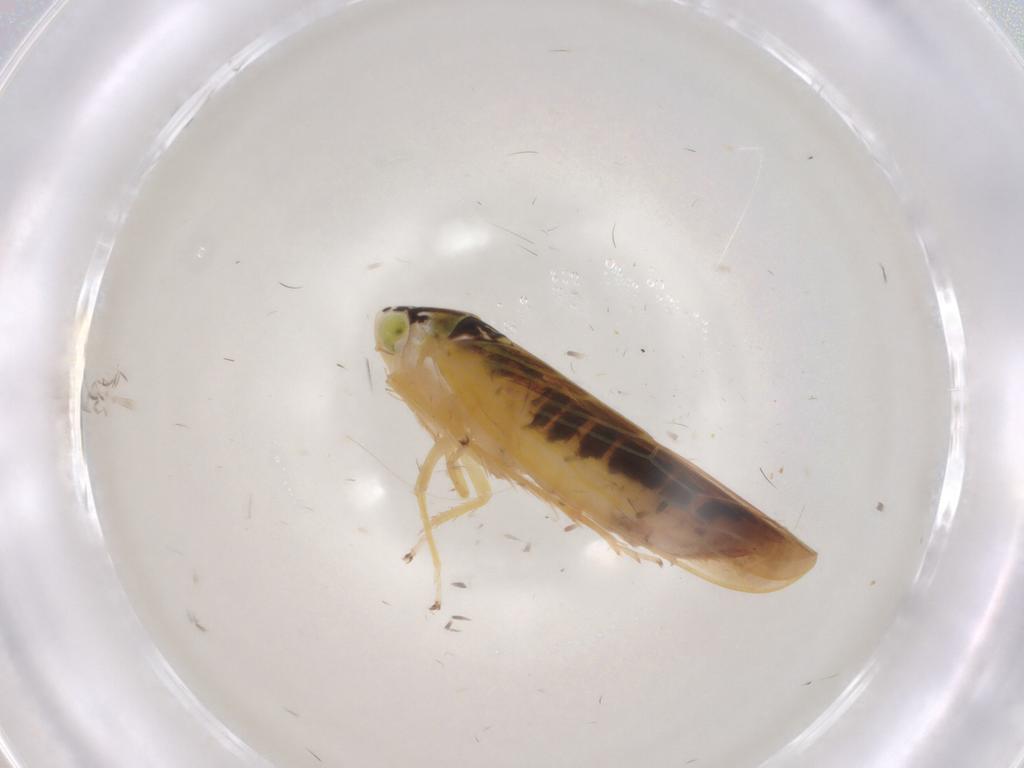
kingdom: Animalia
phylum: Arthropoda
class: Insecta
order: Hemiptera
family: Cicadellidae
